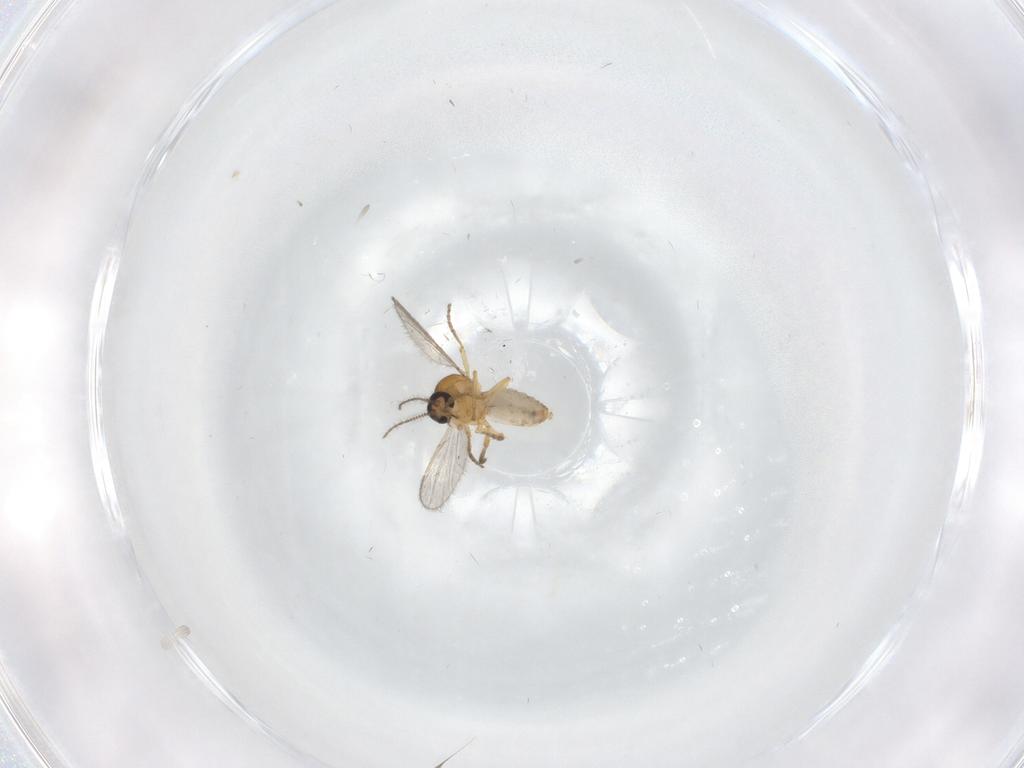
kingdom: Animalia
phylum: Arthropoda
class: Insecta
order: Diptera
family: Ceratopogonidae
